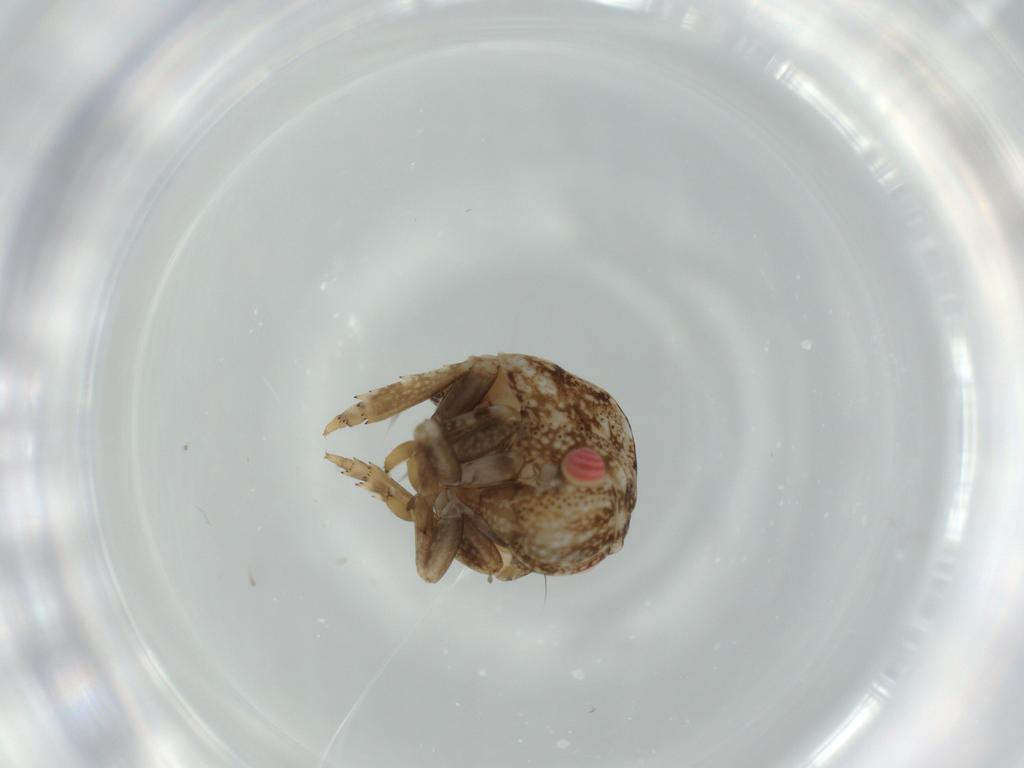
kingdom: Animalia
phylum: Arthropoda
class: Insecta
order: Hemiptera
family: Acanaloniidae
